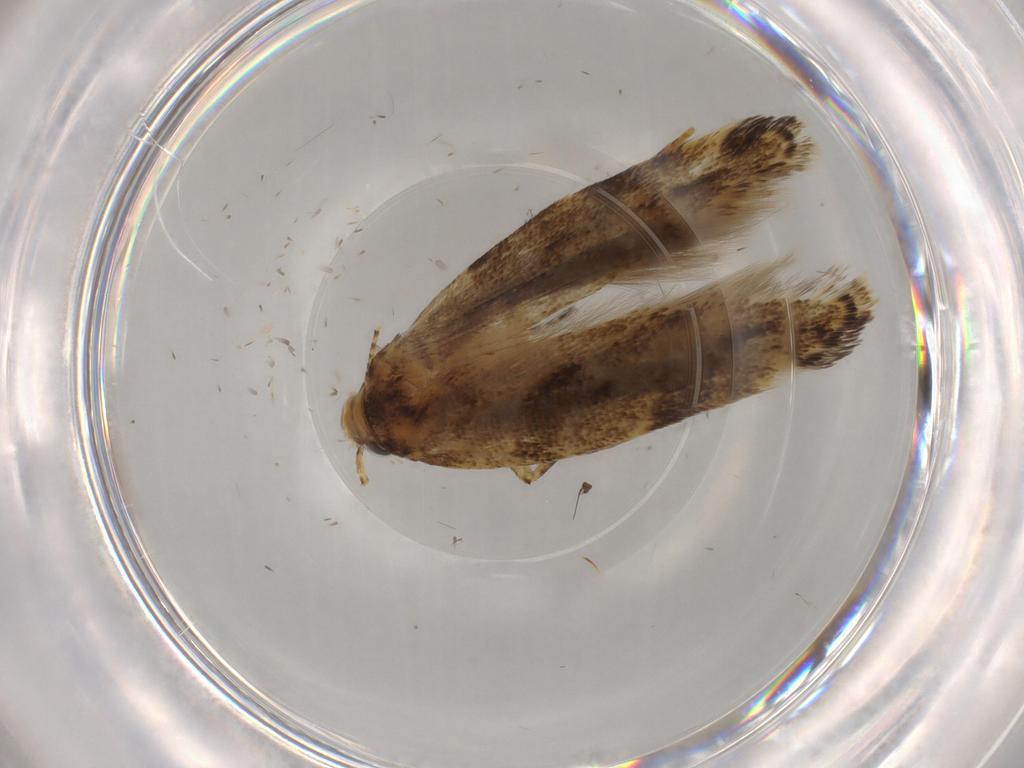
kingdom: Animalia
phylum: Arthropoda
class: Insecta
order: Lepidoptera
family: Gelechiidae
